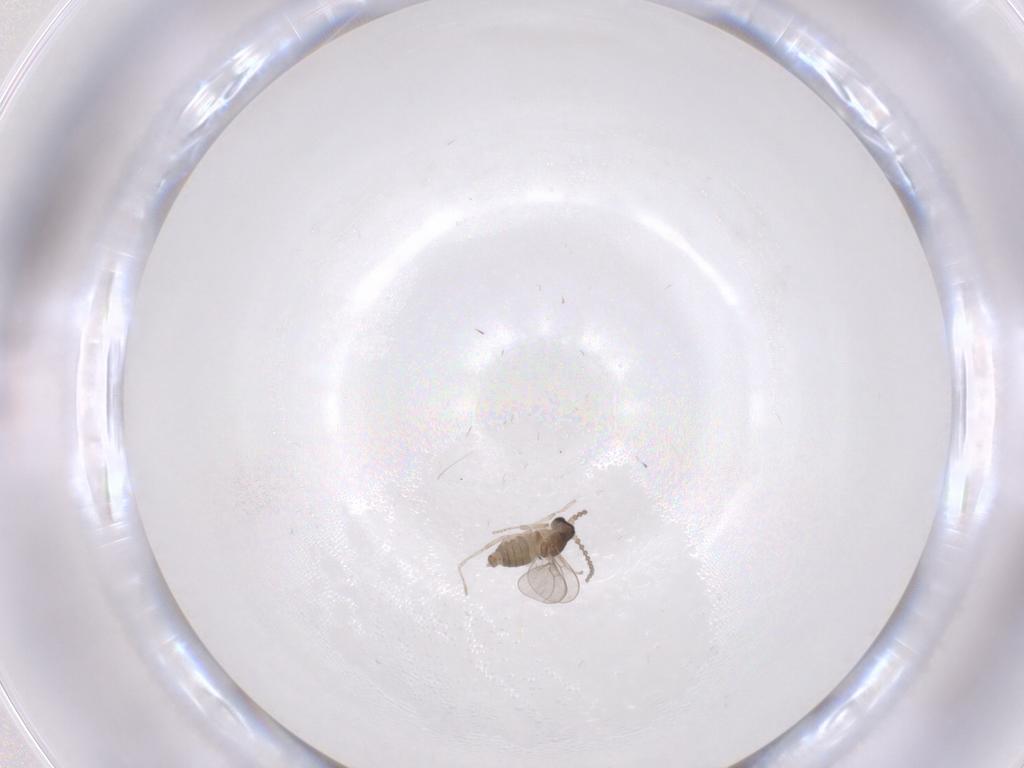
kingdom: Animalia
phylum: Arthropoda
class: Insecta
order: Diptera
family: Cecidomyiidae
